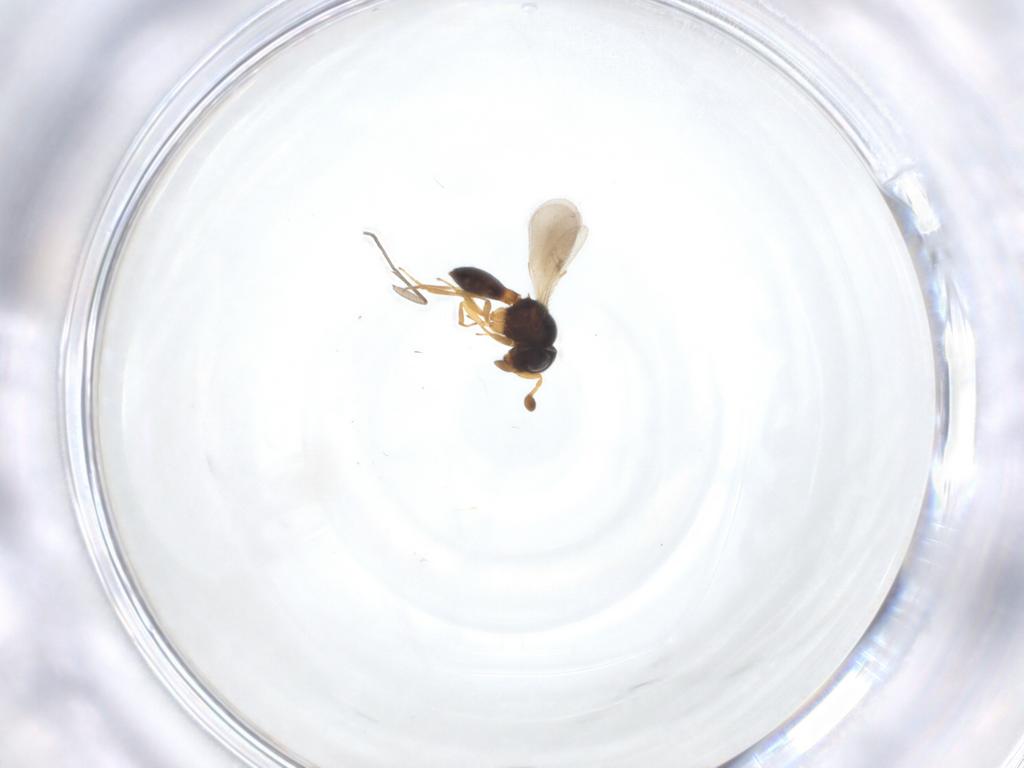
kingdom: Animalia
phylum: Arthropoda
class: Insecta
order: Hymenoptera
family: Scelionidae
